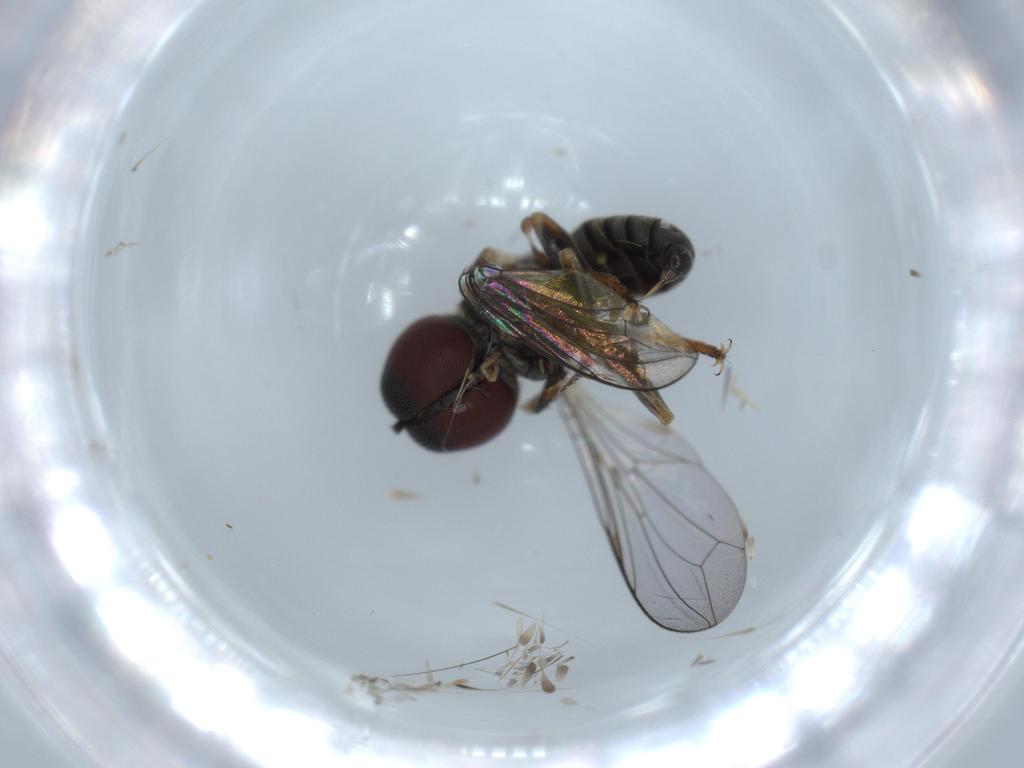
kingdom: Animalia
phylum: Arthropoda
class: Insecta
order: Diptera
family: Pipunculidae
